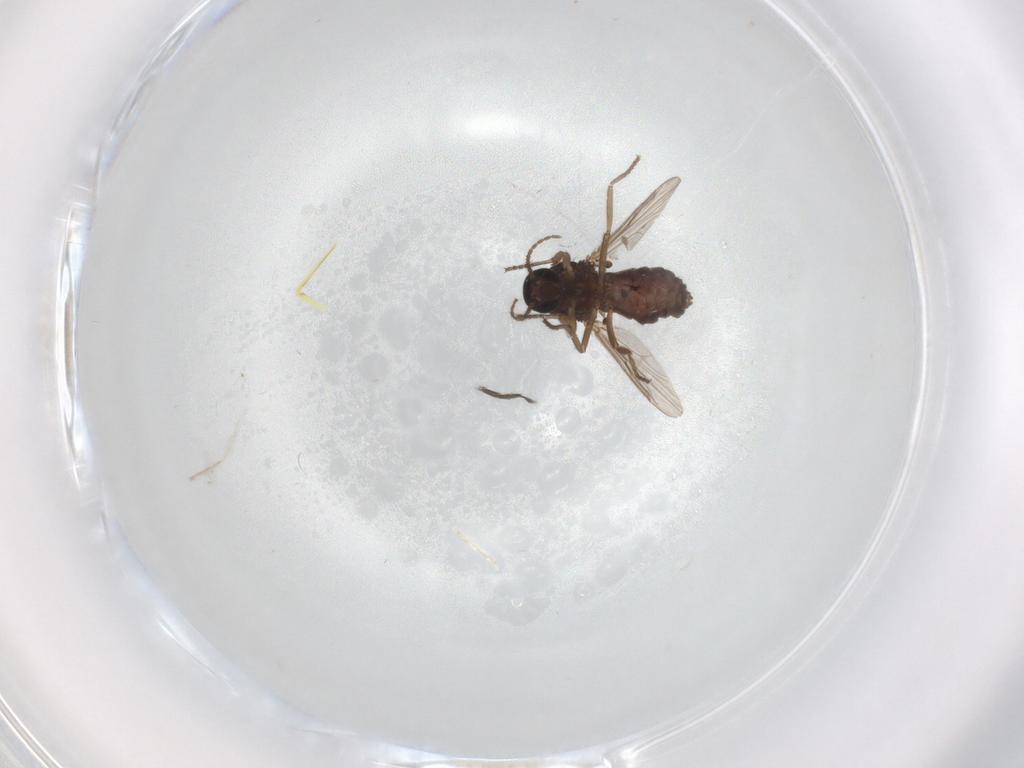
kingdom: Animalia
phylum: Arthropoda
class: Insecta
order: Diptera
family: Ceratopogonidae
